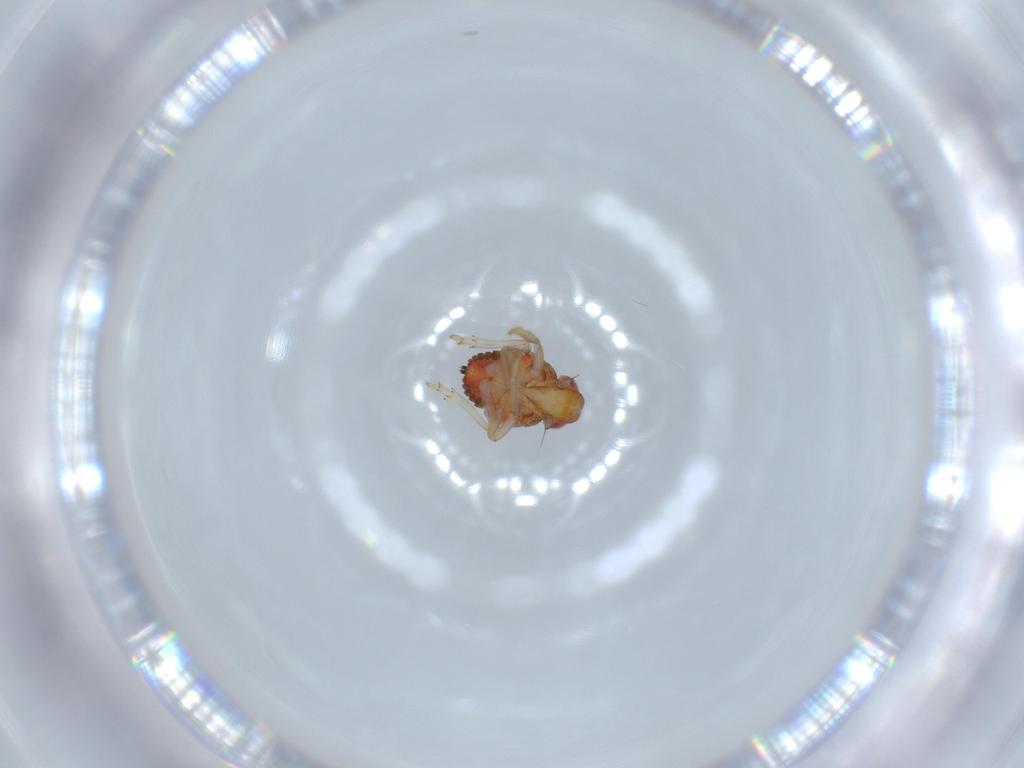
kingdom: Animalia
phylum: Arthropoda
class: Insecta
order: Hemiptera
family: Issidae
